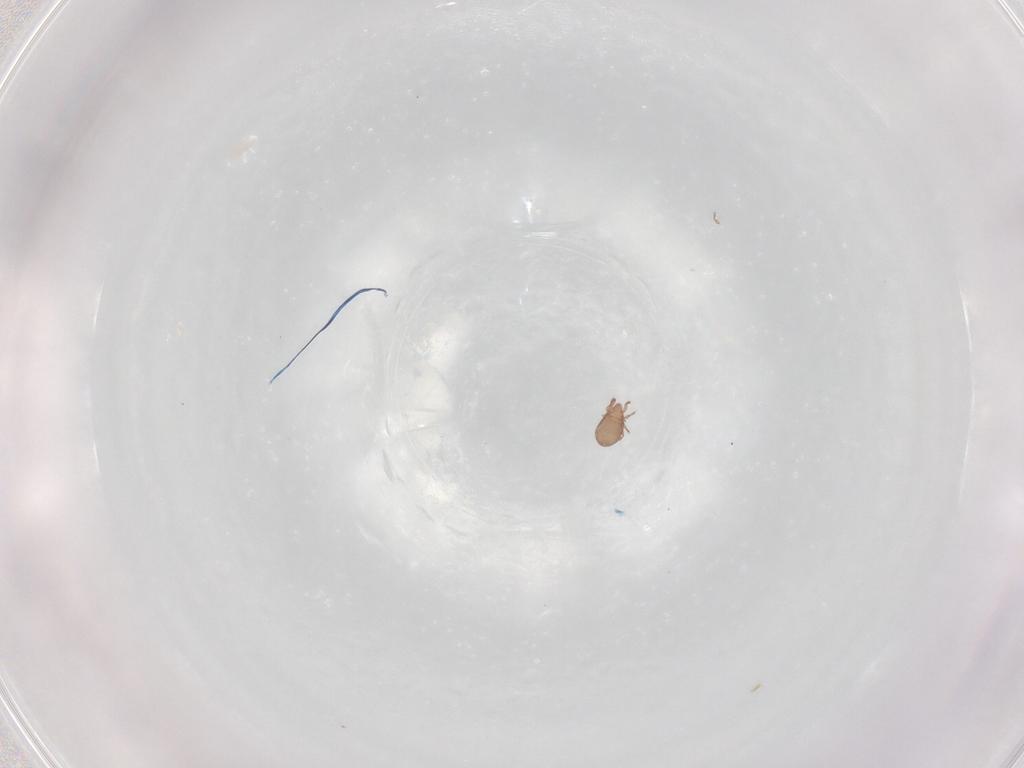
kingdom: Animalia
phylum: Arthropoda
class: Arachnida
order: Sarcoptiformes
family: Eremaeidae
